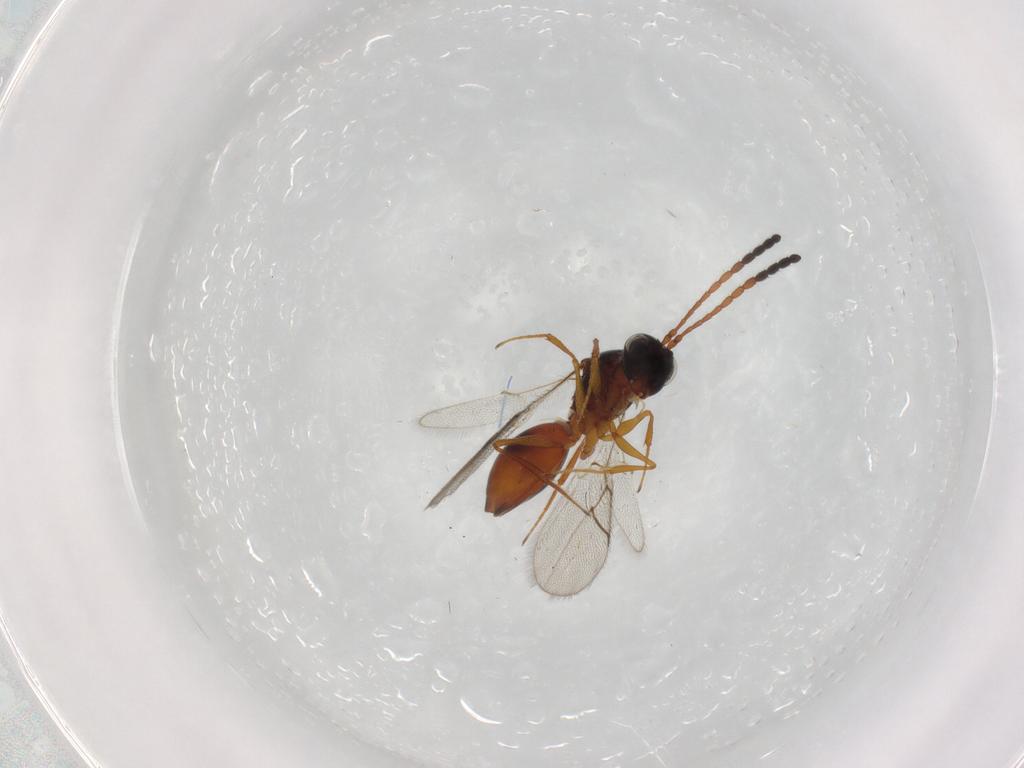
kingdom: Animalia
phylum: Arthropoda
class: Insecta
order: Hymenoptera
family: Figitidae
